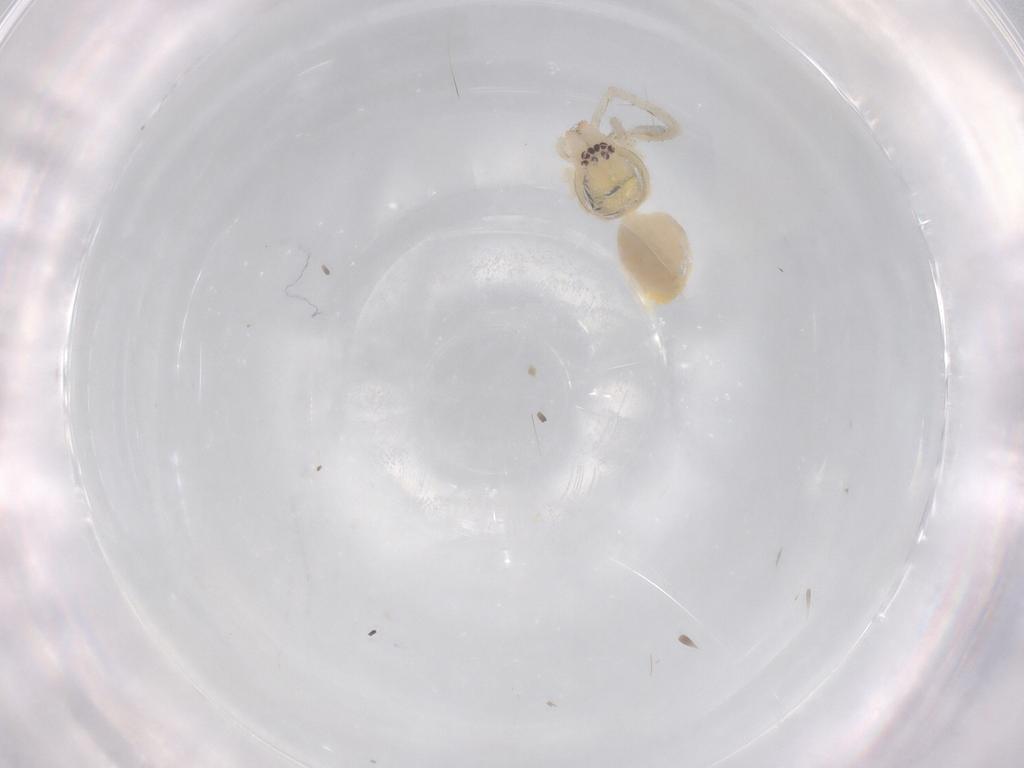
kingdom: Animalia
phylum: Arthropoda
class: Arachnida
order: Araneae
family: Anyphaenidae
